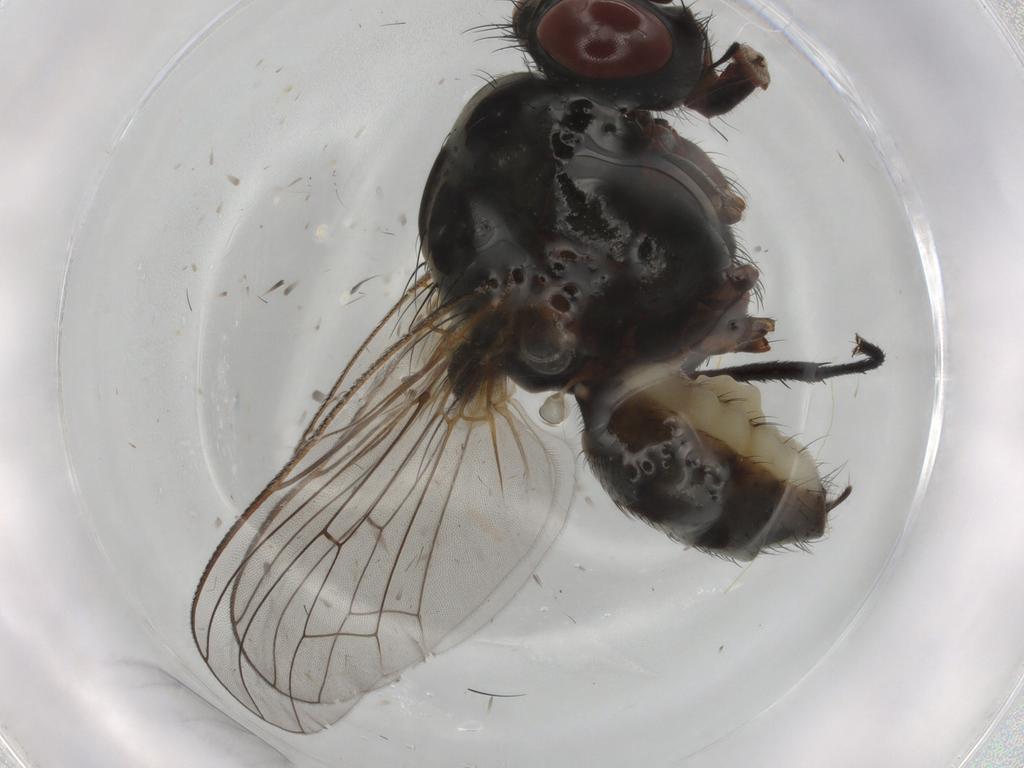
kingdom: Animalia
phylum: Arthropoda
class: Insecta
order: Diptera
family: Anthomyiidae
